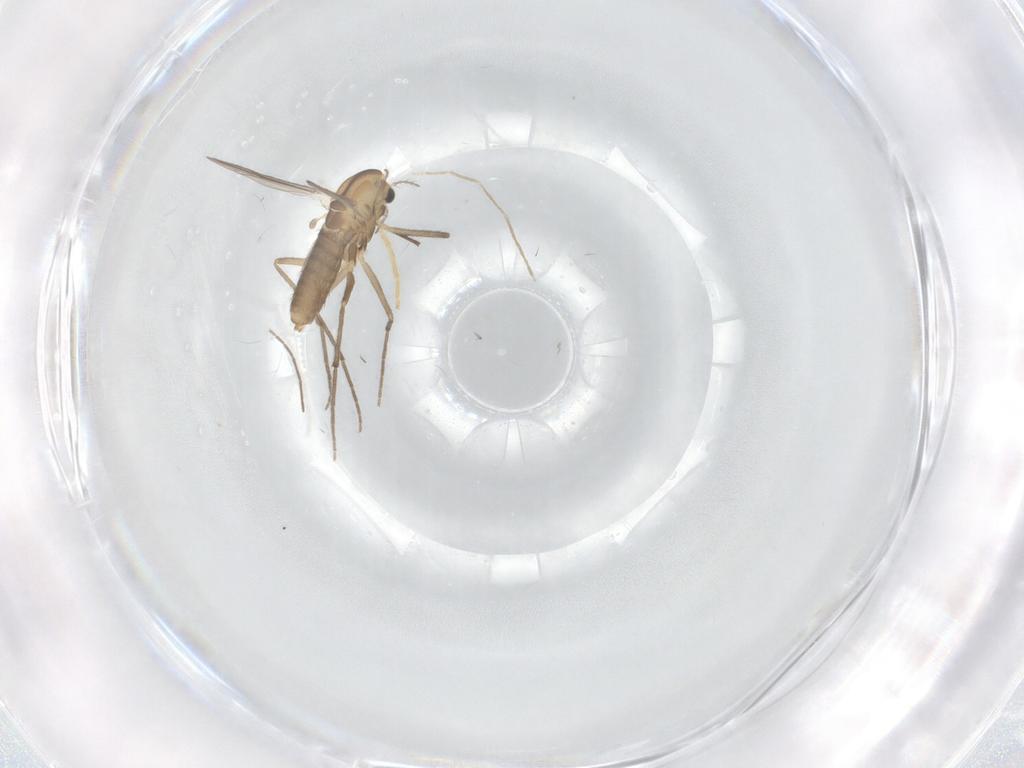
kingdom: Animalia
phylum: Arthropoda
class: Insecta
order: Diptera
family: Chironomidae
